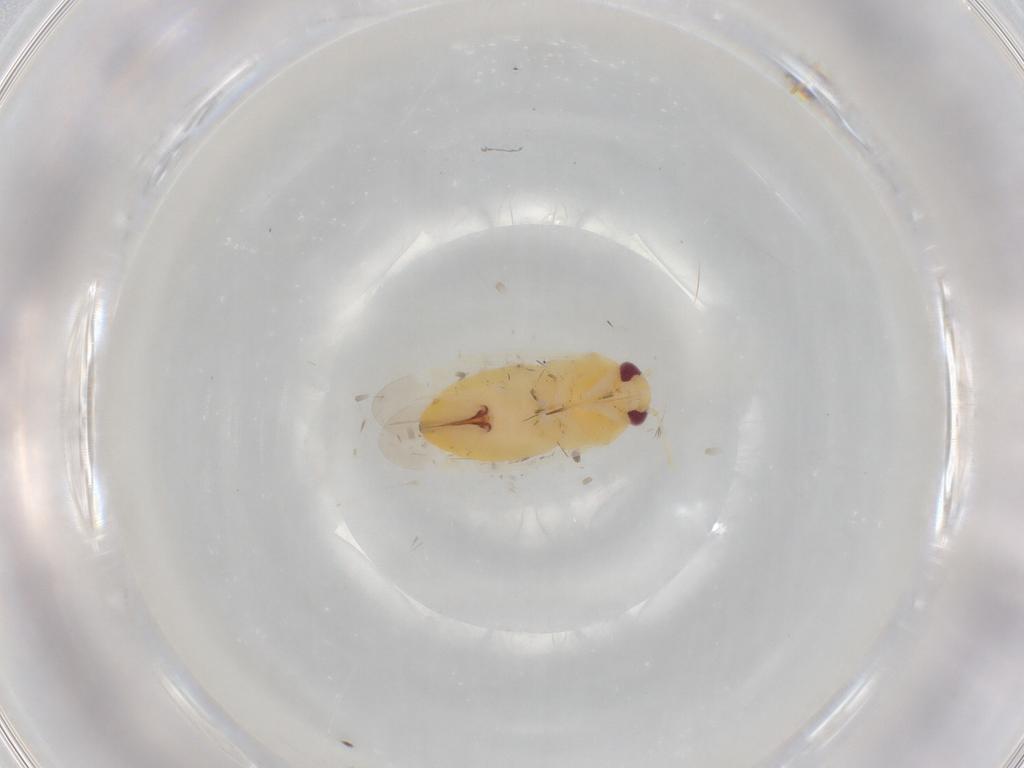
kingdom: Animalia
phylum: Arthropoda
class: Insecta
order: Hemiptera
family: Miridae
